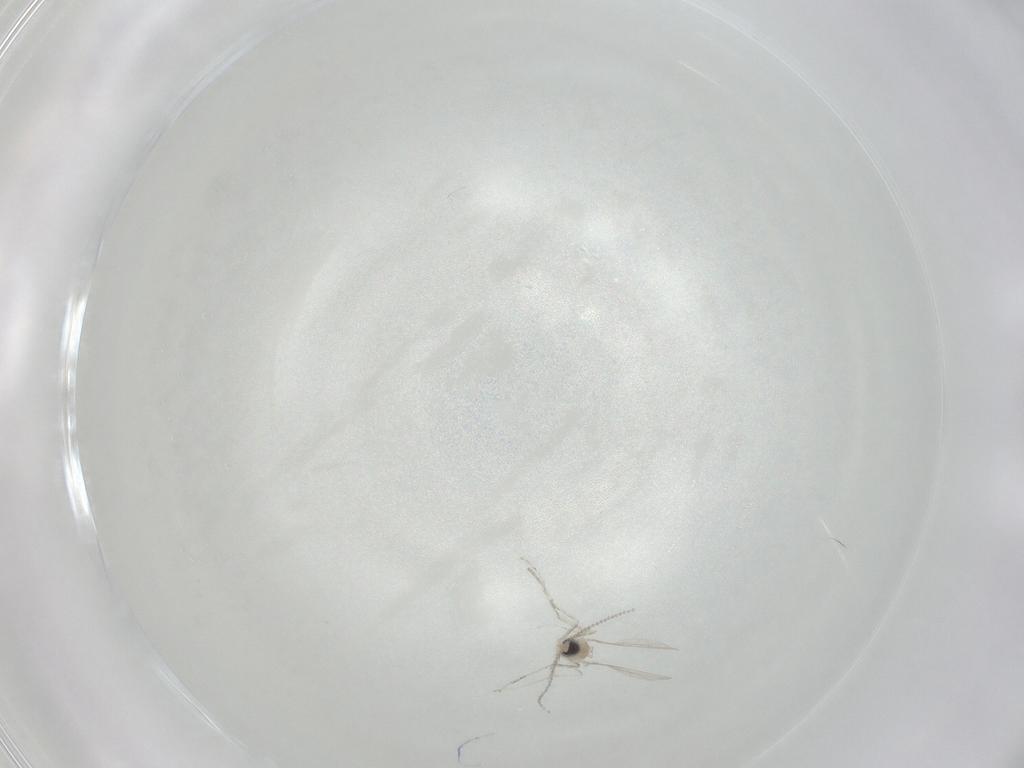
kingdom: Animalia
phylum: Arthropoda
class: Insecta
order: Diptera
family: Cecidomyiidae
